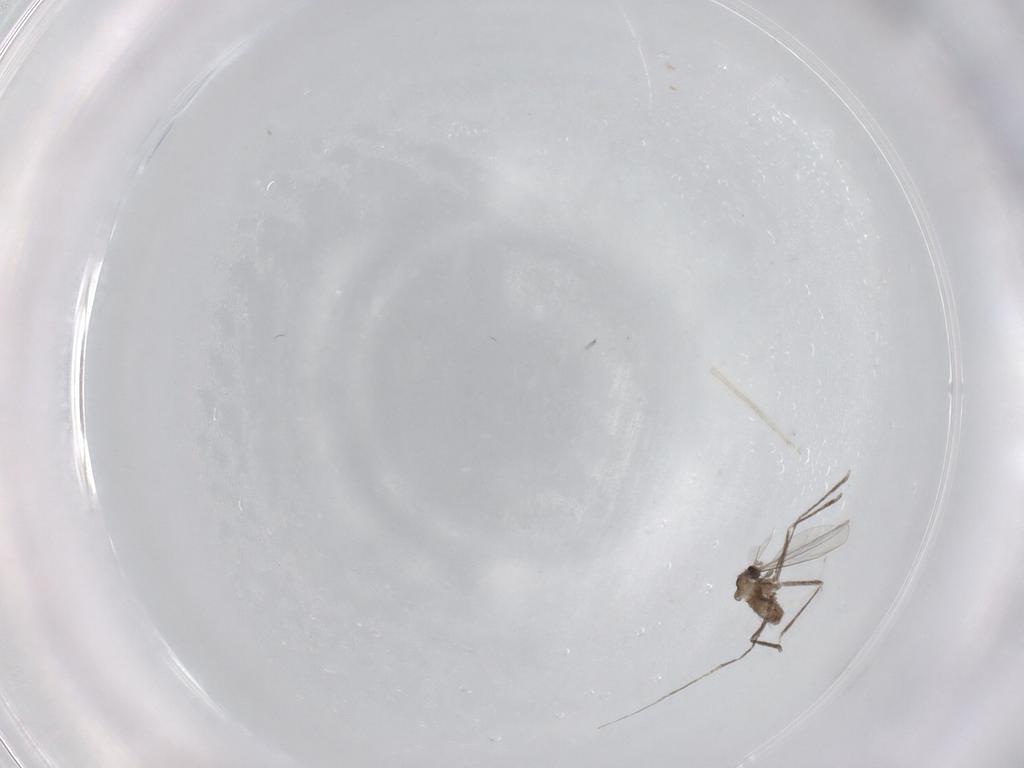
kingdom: Animalia
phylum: Arthropoda
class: Insecta
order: Diptera
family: Cecidomyiidae
